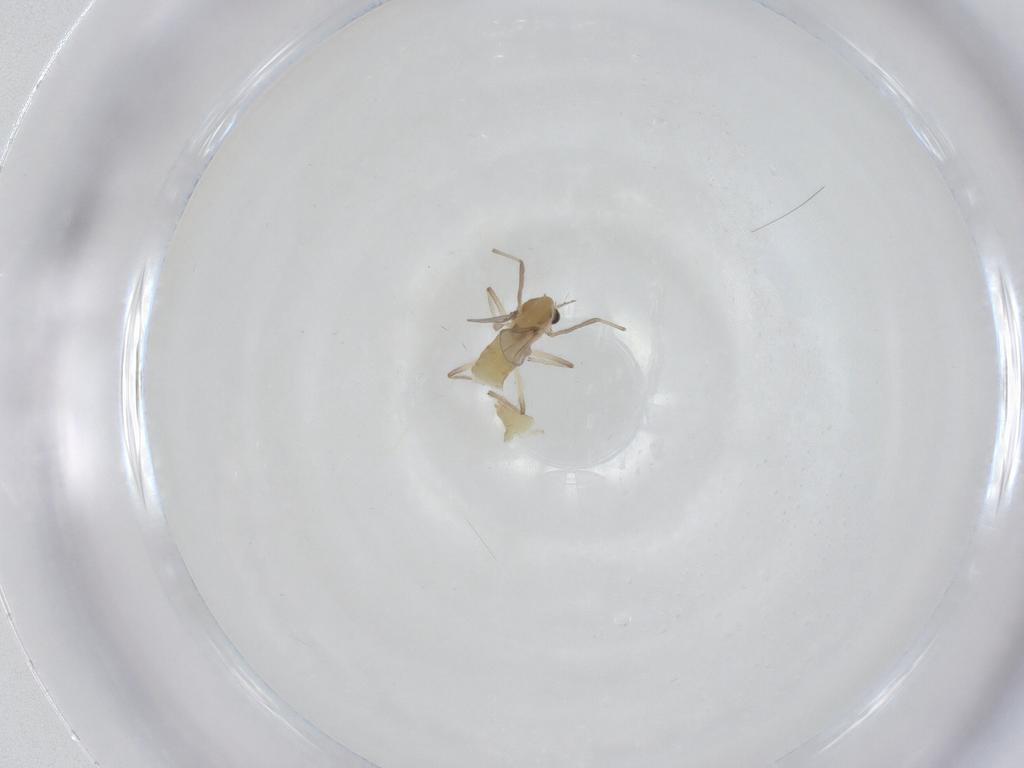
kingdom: Animalia
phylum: Arthropoda
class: Insecta
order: Diptera
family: Chironomidae
